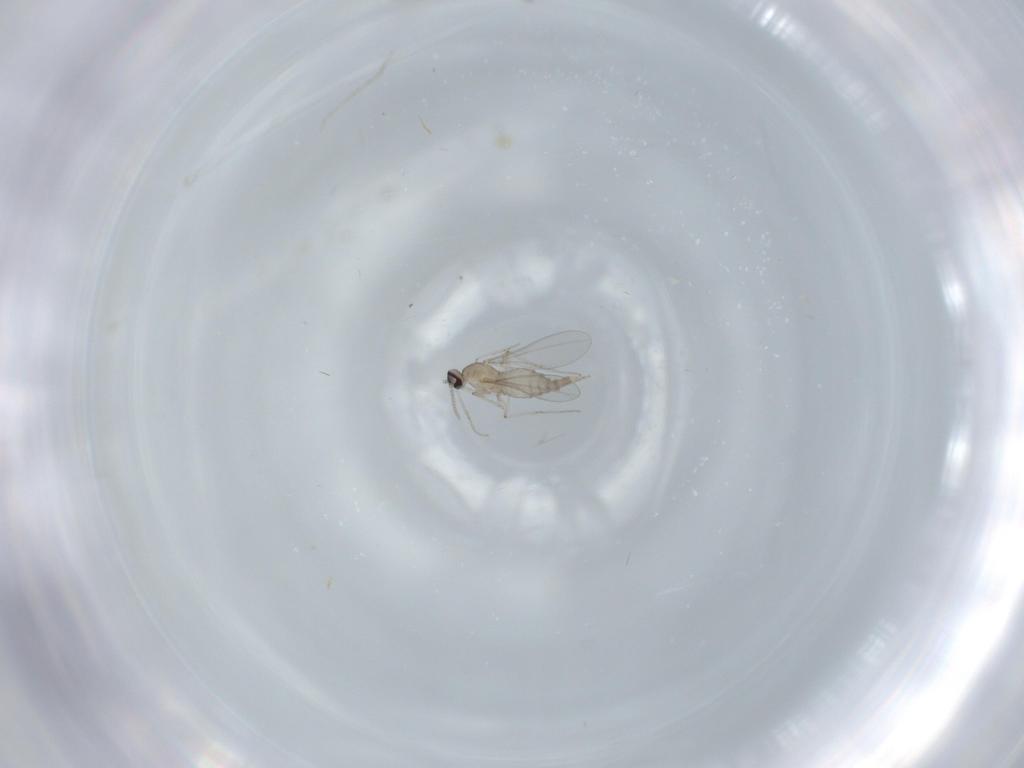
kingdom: Animalia
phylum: Arthropoda
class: Insecta
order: Diptera
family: Cecidomyiidae
